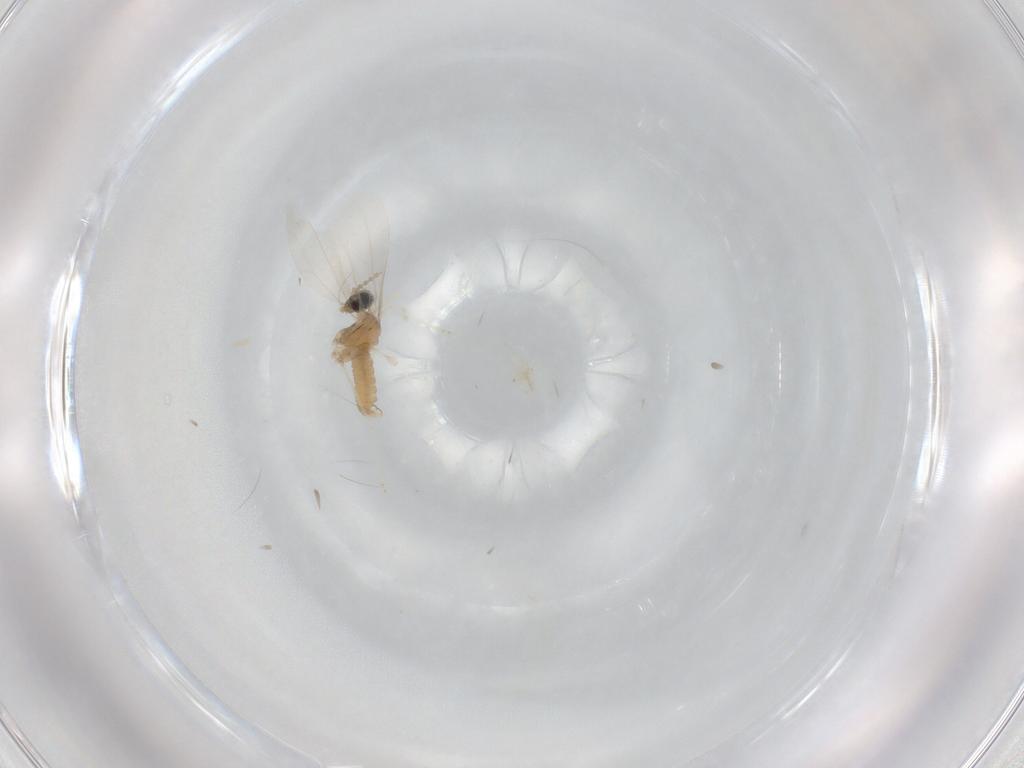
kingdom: Animalia
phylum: Arthropoda
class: Insecta
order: Diptera
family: Cecidomyiidae
